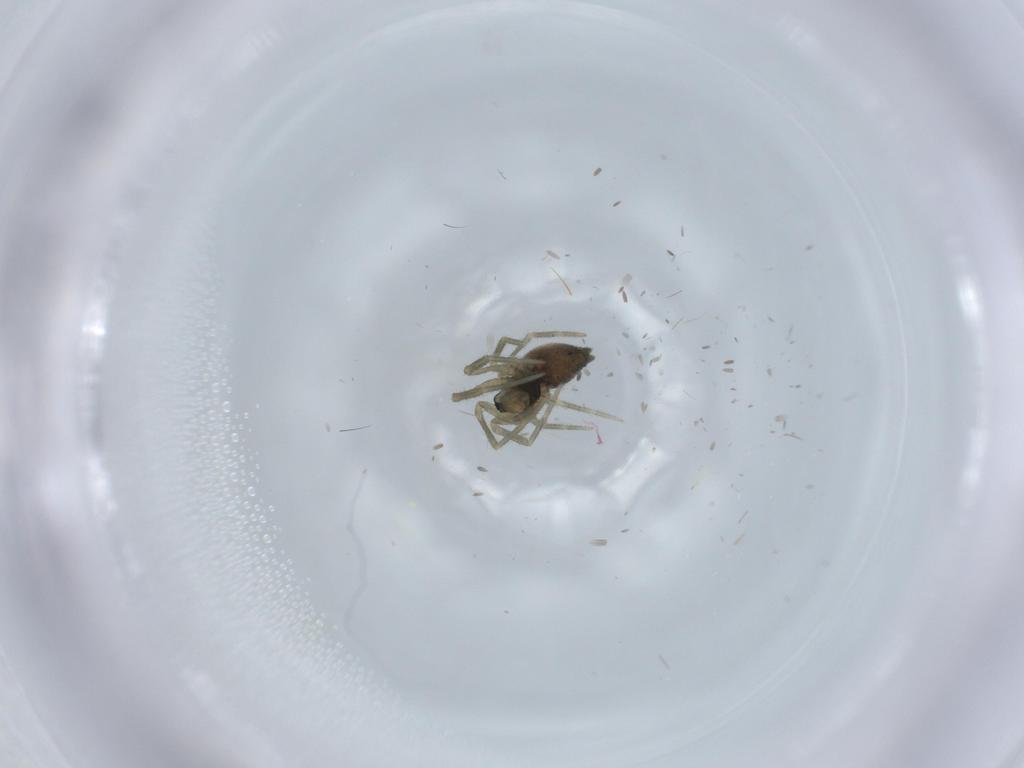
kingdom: Animalia
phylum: Arthropoda
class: Arachnida
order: Araneae
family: Linyphiidae
